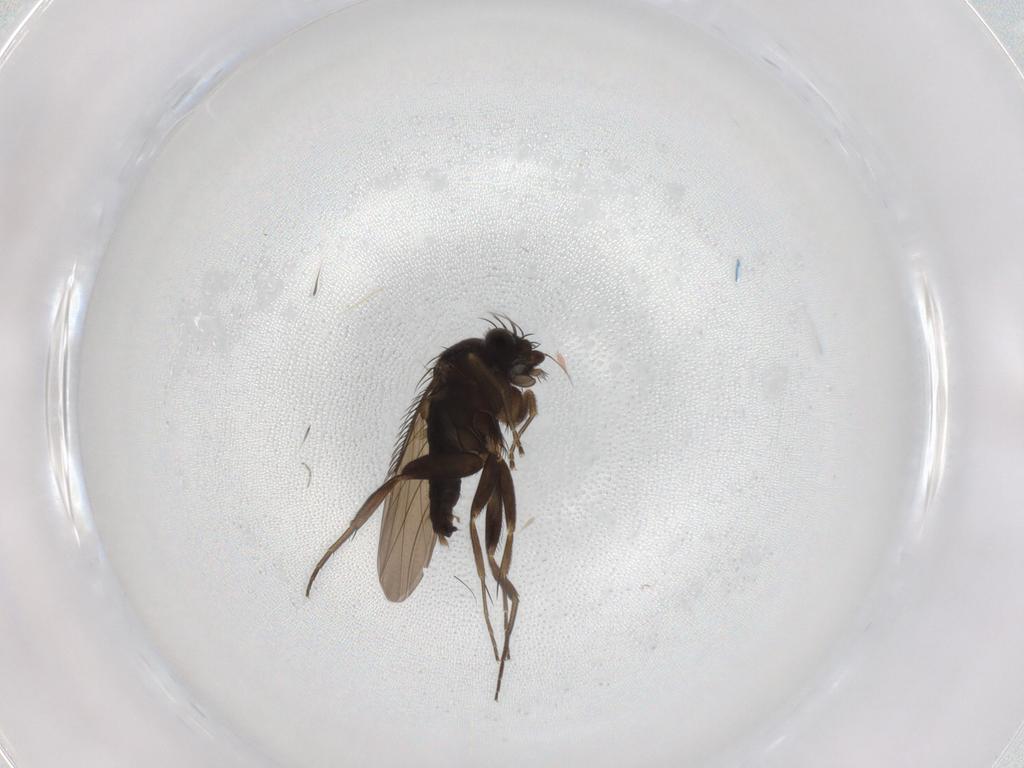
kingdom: Animalia
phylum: Arthropoda
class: Insecta
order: Diptera
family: Phoridae
